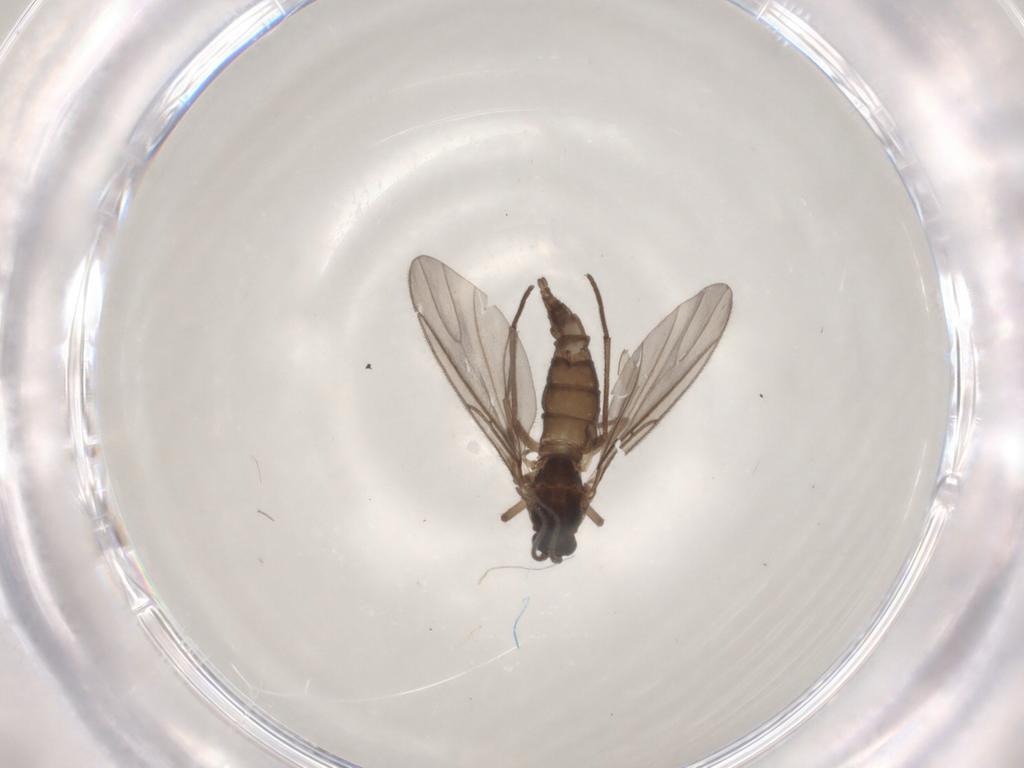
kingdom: Animalia
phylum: Arthropoda
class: Insecta
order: Diptera
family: Sciaridae
